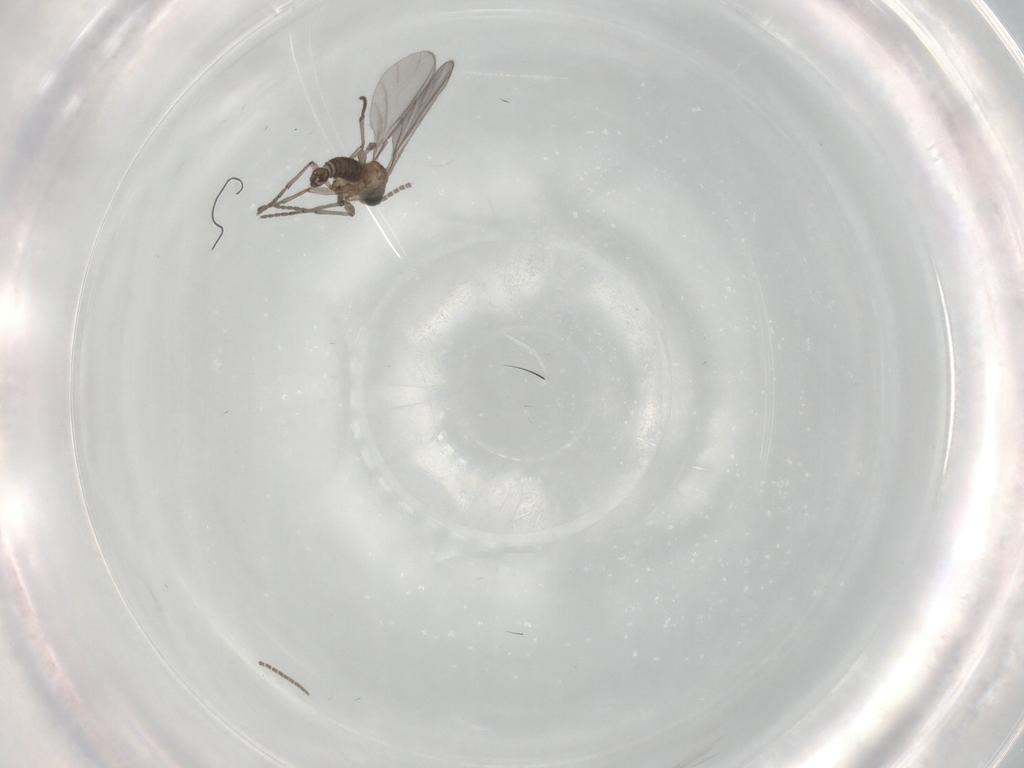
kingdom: Animalia
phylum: Arthropoda
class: Insecta
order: Diptera
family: Sciaridae
